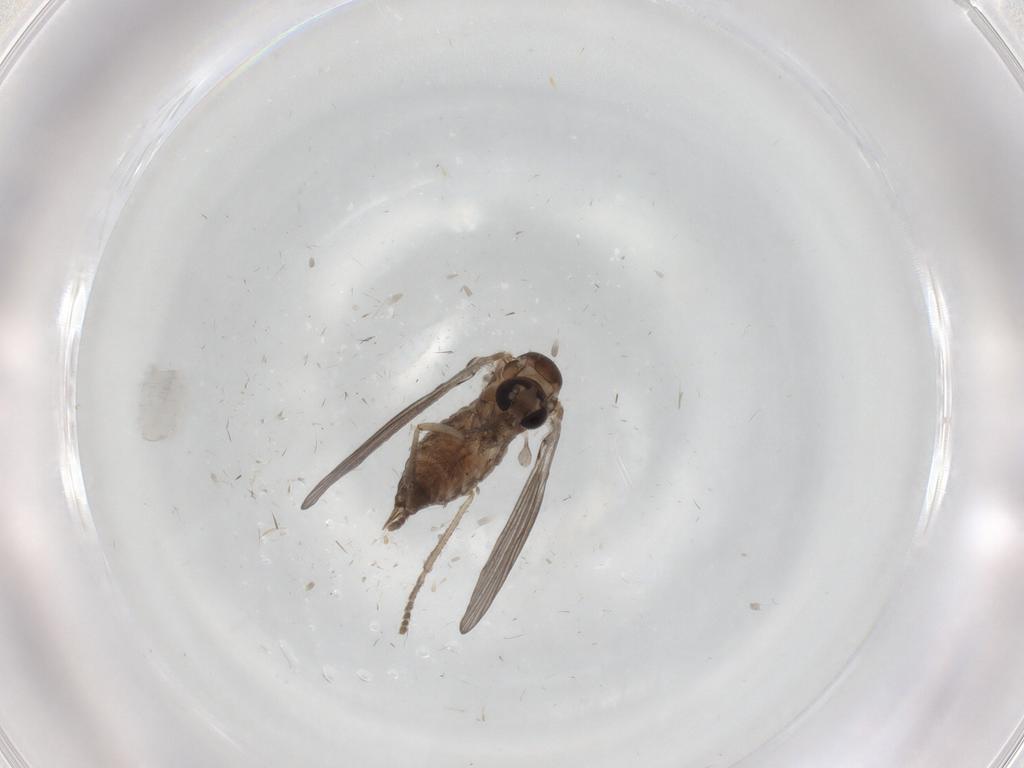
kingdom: Animalia
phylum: Arthropoda
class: Insecta
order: Diptera
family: Psychodidae
